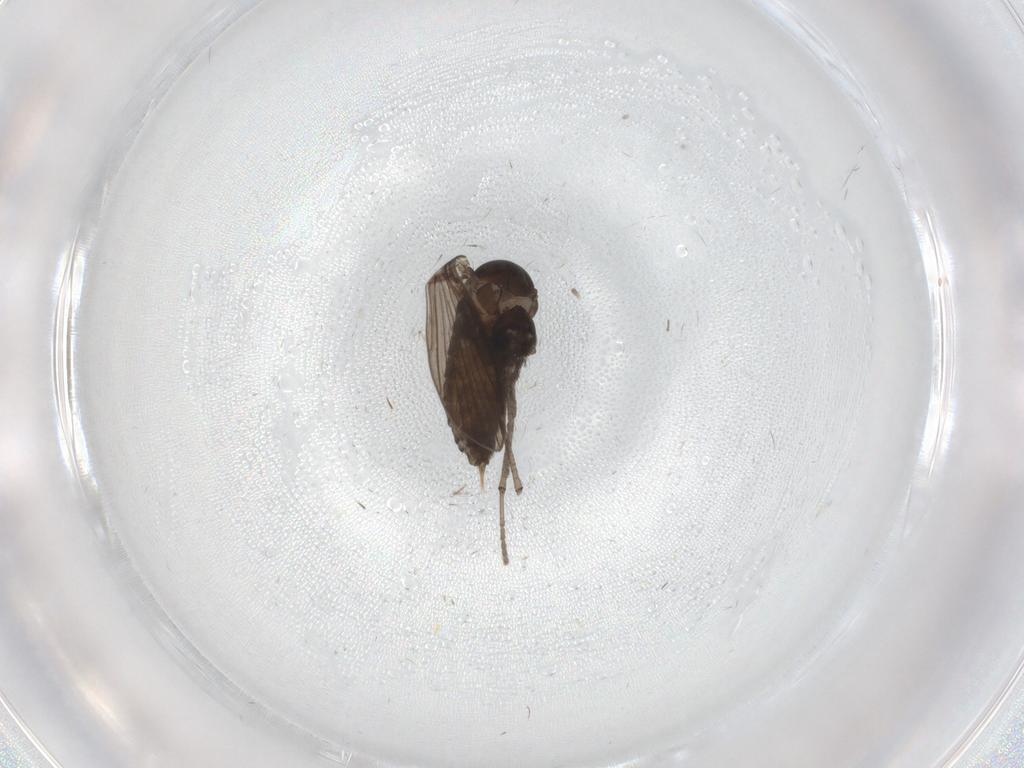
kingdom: Animalia
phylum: Arthropoda
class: Insecta
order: Diptera
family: Psychodidae
